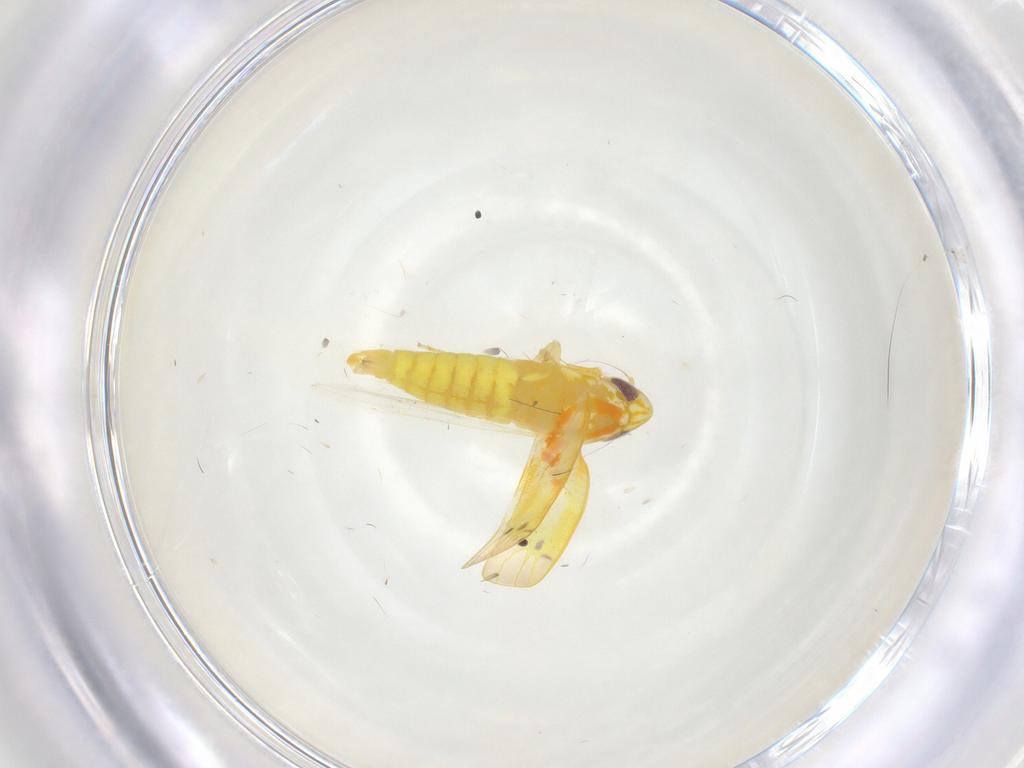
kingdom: Animalia
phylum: Arthropoda
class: Insecta
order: Hemiptera
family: Cicadellidae
